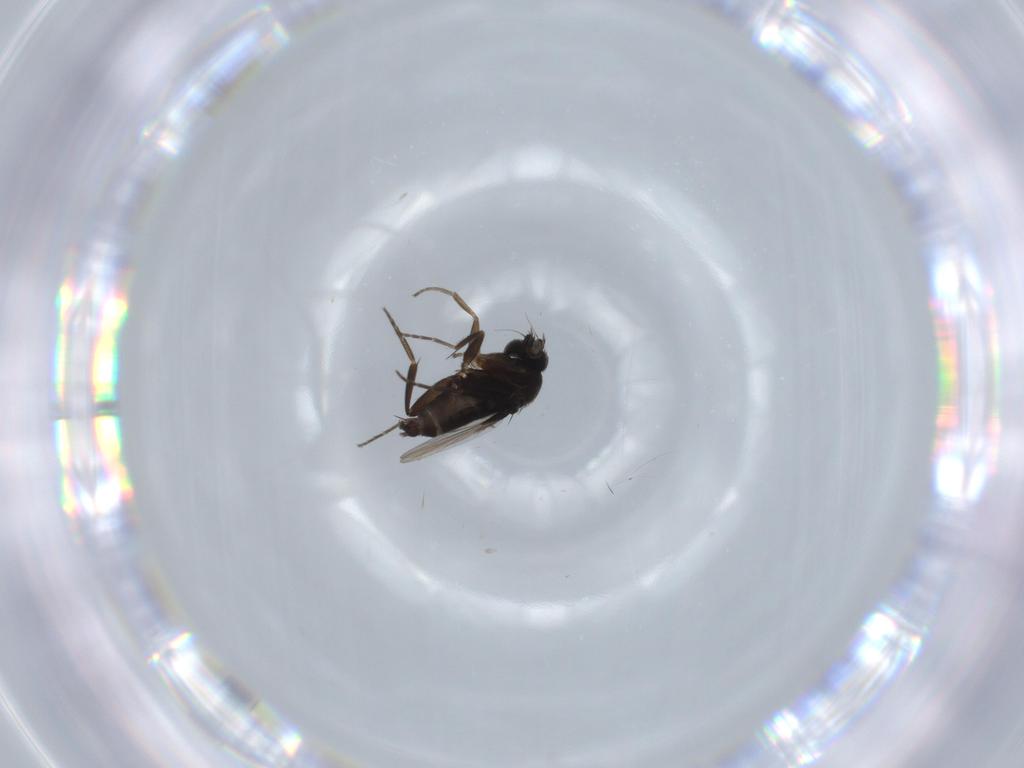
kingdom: Animalia
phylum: Arthropoda
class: Insecta
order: Diptera
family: Phoridae
